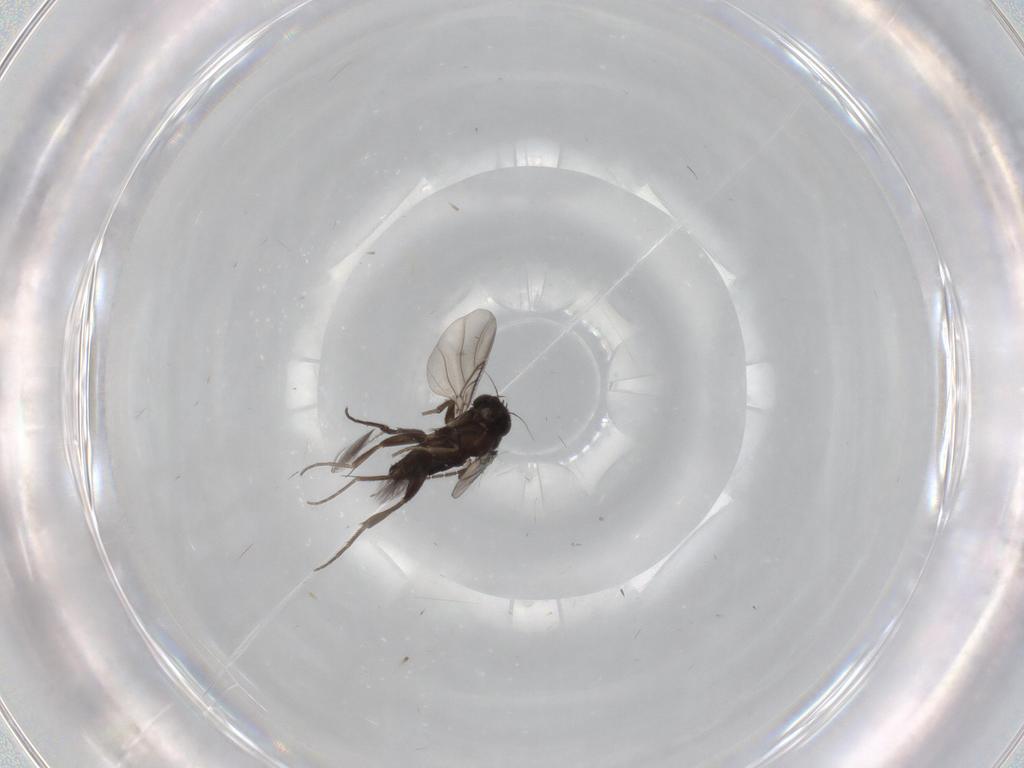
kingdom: Animalia
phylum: Arthropoda
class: Insecta
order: Diptera
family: Phoridae
